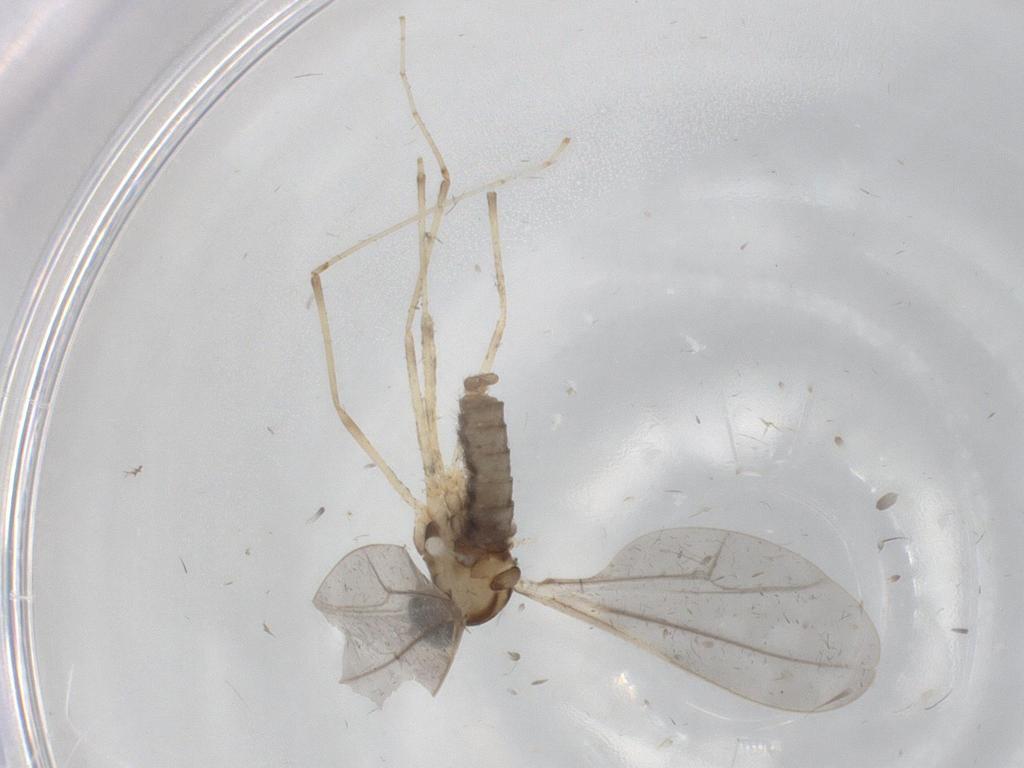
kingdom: Animalia
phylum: Arthropoda
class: Insecta
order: Diptera
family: Cecidomyiidae
